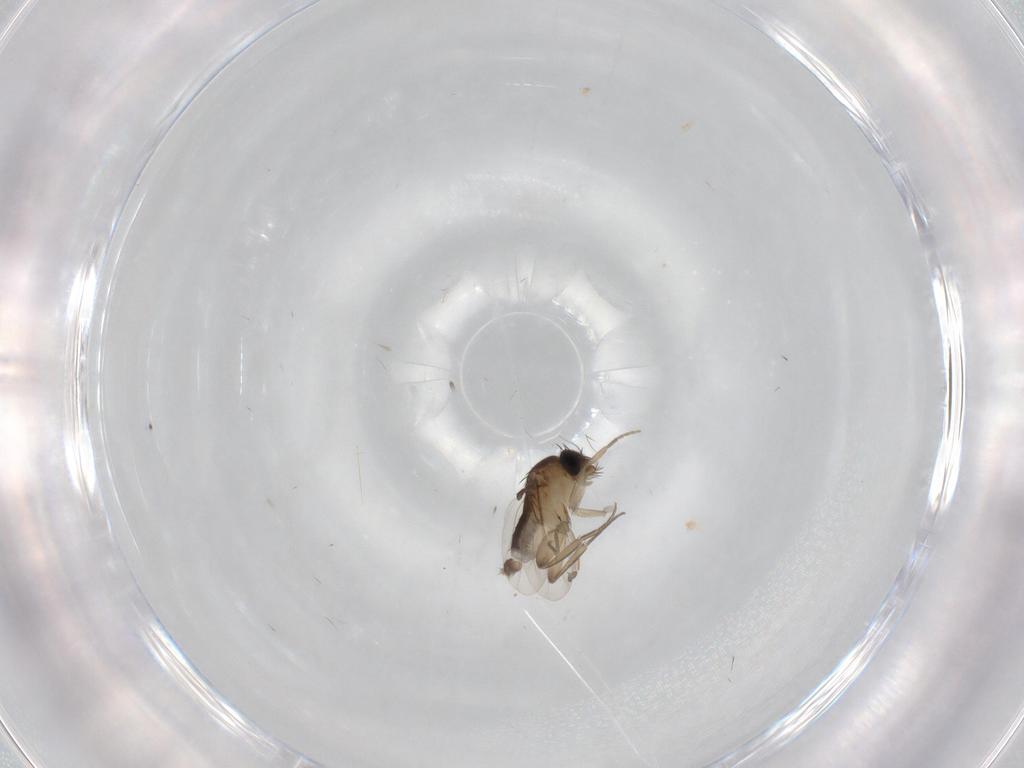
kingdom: Animalia
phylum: Arthropoda
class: Insecta
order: Diptera
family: Phoridae
